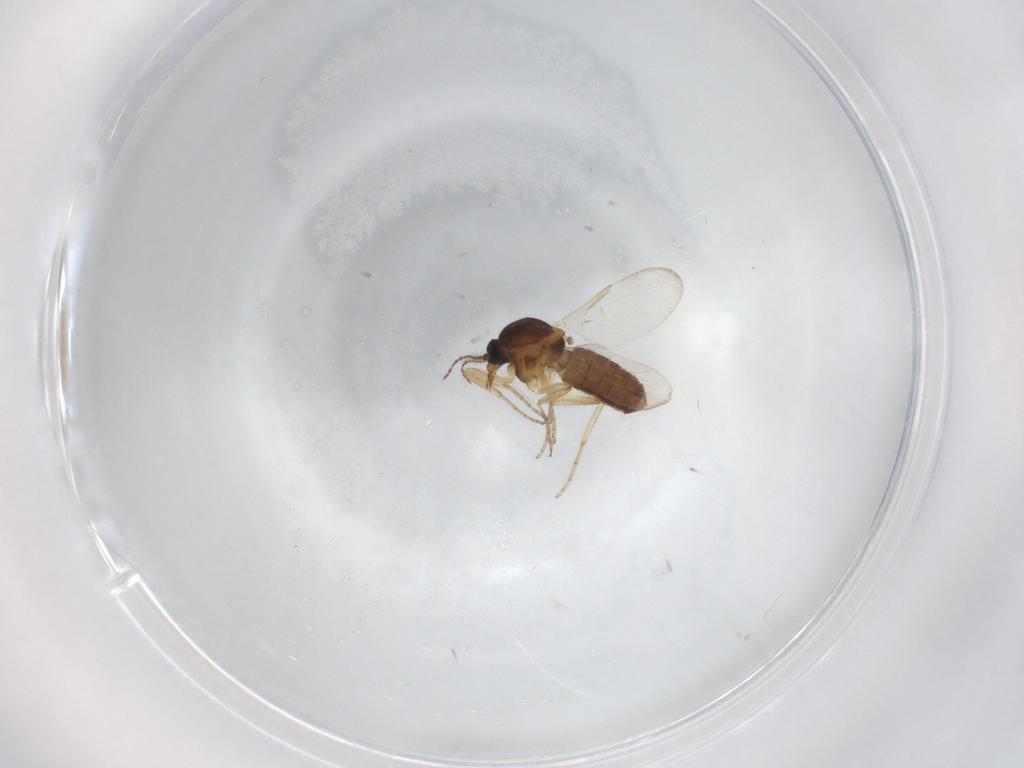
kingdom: Animalia
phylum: Arthropoda
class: Insecta
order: Diptera
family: Ceratopogonidae
